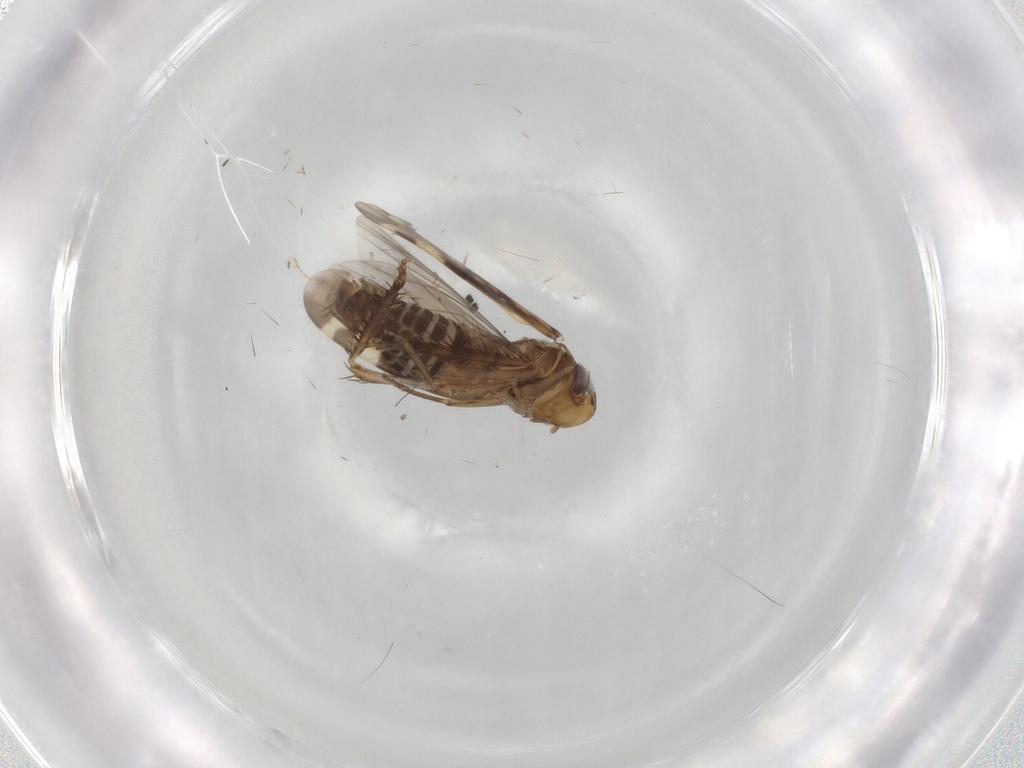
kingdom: Animalia
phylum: Arthropoda
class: Insecta
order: Hemiptera
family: Cicadellidae
